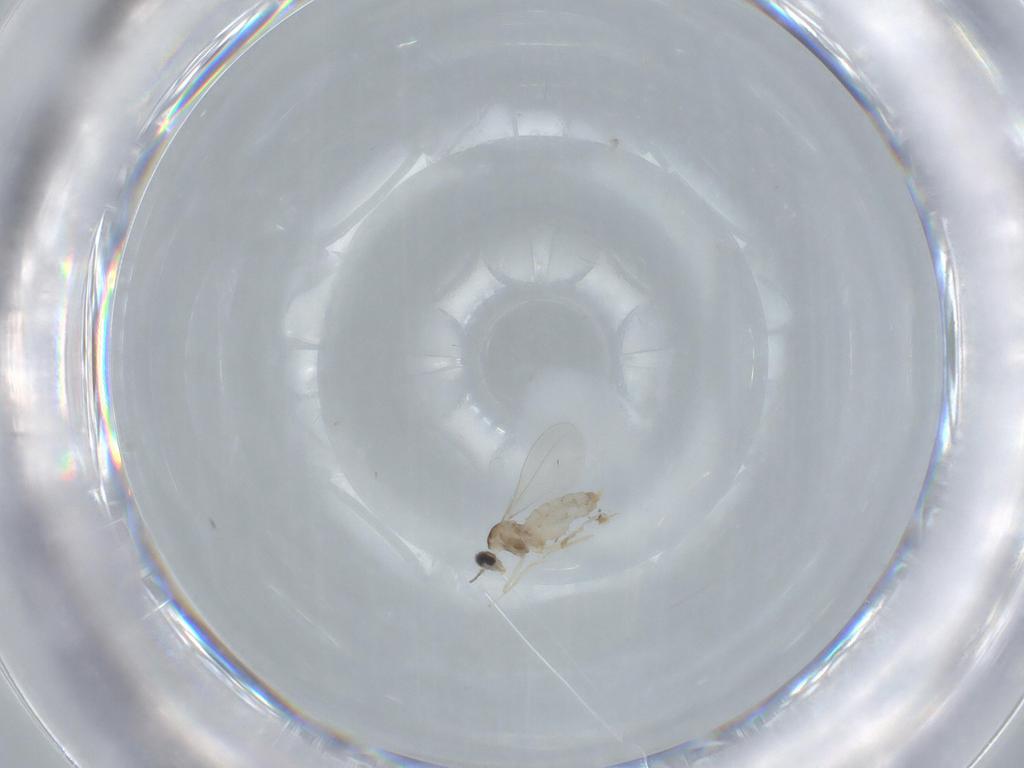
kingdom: Animalia
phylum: Arthropoda
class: Insecta
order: Diptera
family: Cecidomyiidae
